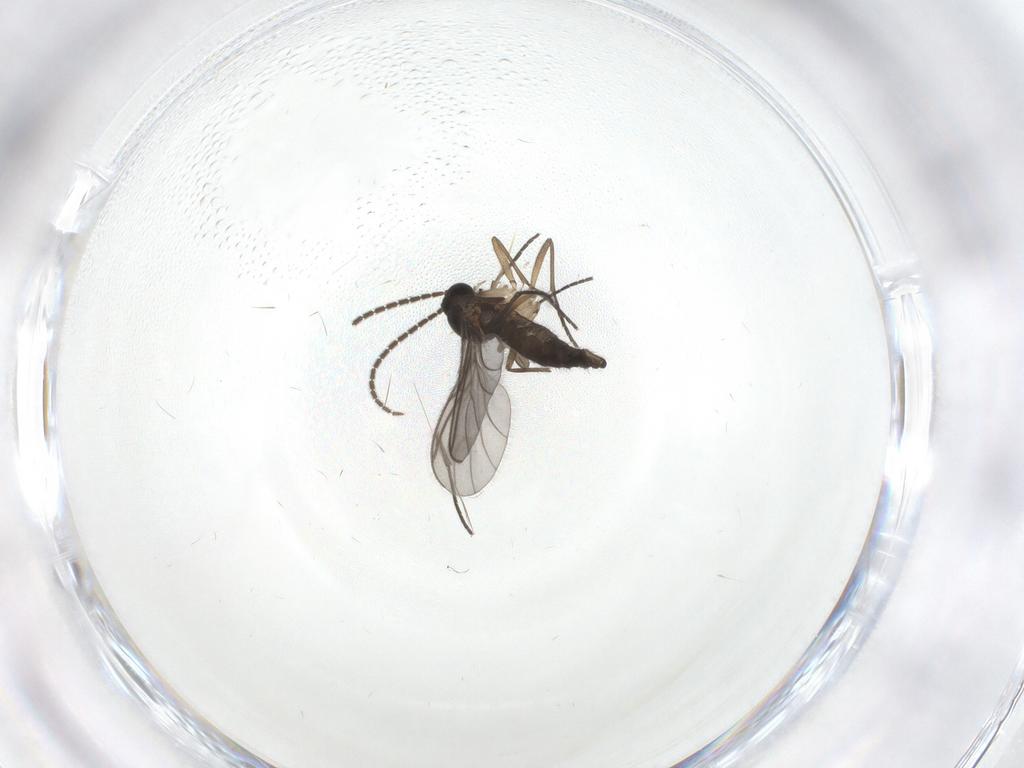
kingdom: Animalia
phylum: Arthropoda
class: Insecta
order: Diptera
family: Sciaridae
